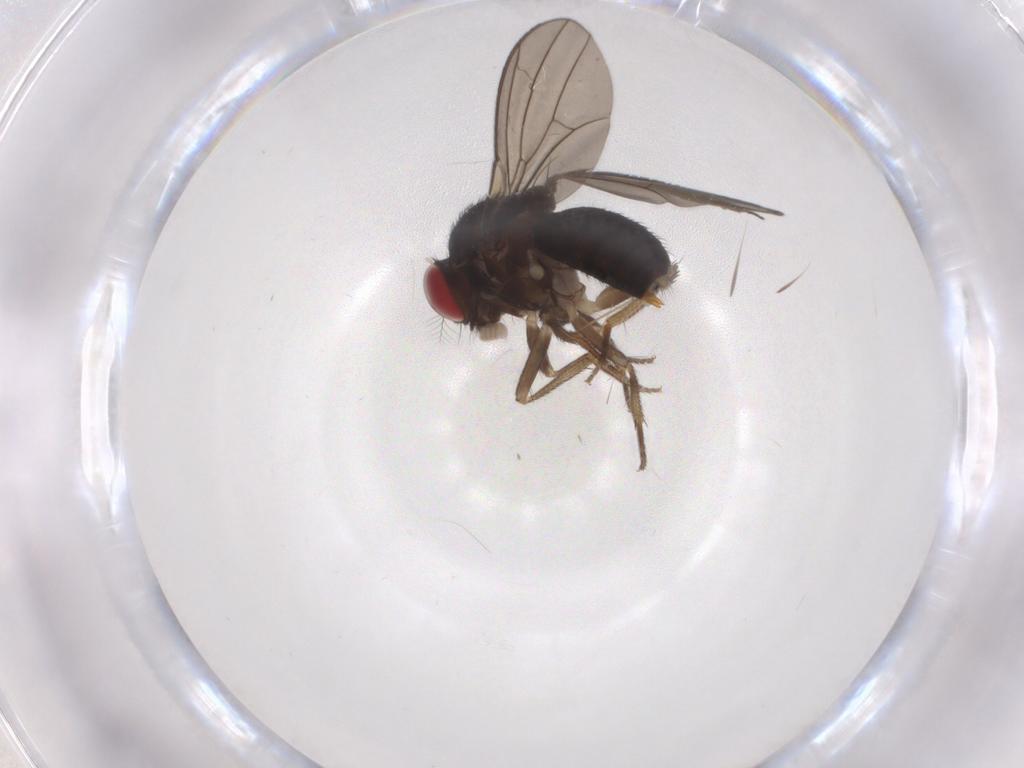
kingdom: Animalia
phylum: Arthropoda
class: Insecta
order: Diptera
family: Drosophilidae
